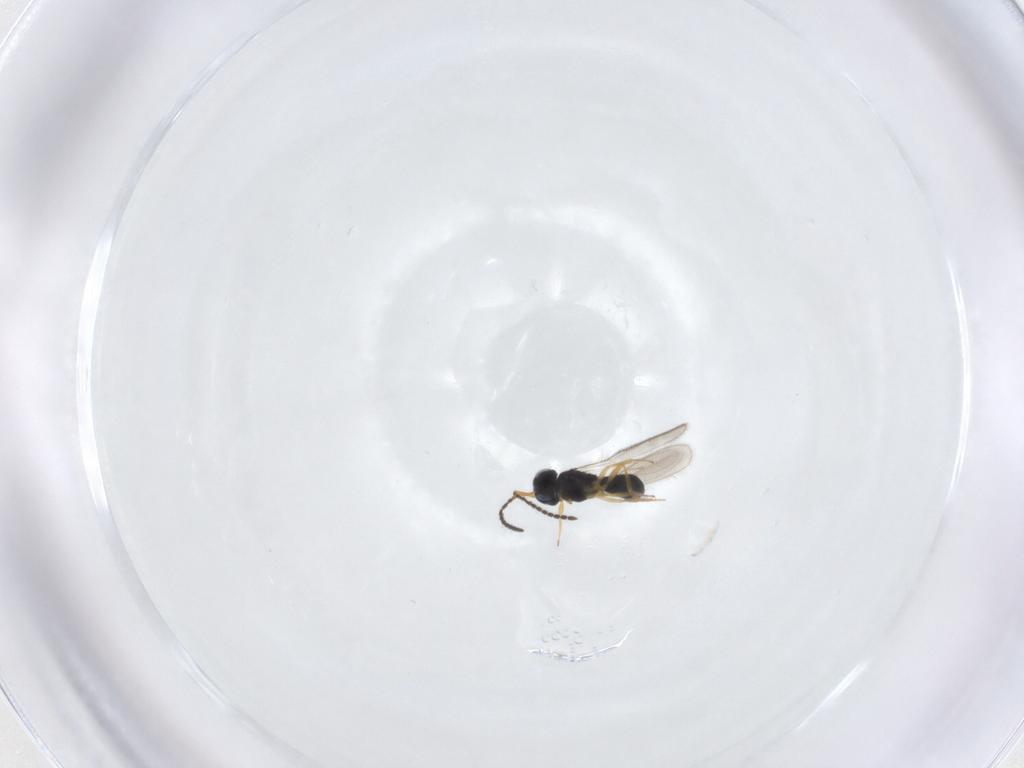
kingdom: Animalia
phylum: Arthropoda
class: Insecta
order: Hymenoptera
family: Scelionidae
